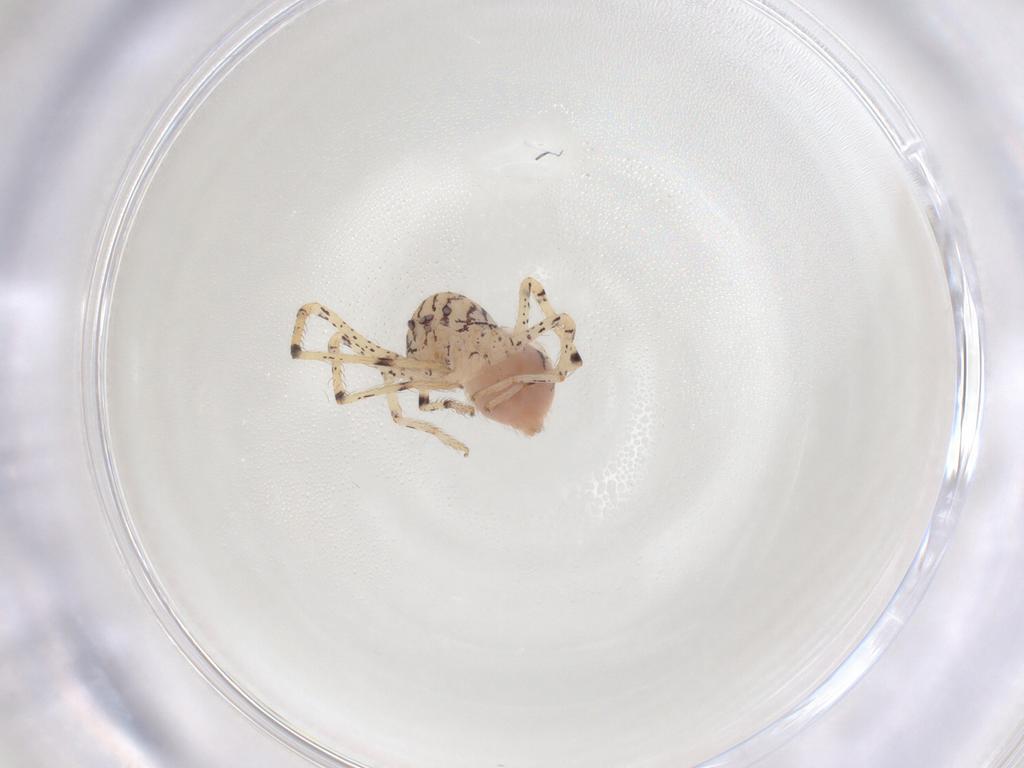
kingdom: Animalia
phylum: Arthropoda
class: Arachnida
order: Araneae
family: Scytodidae
